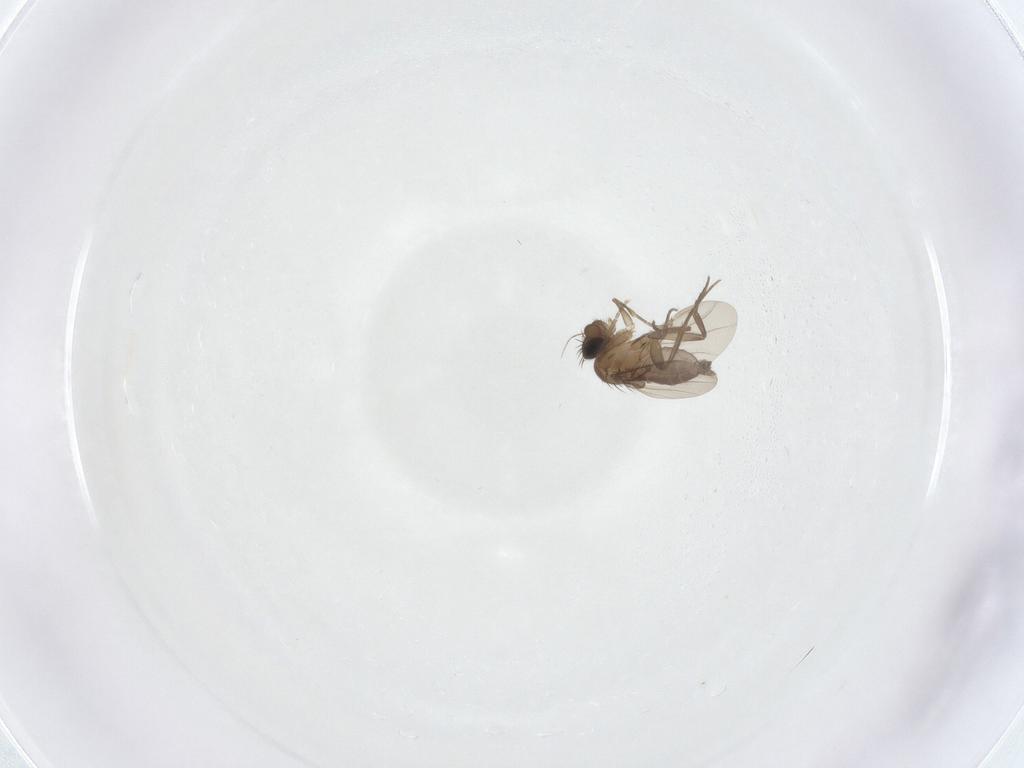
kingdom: Animalia
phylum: Arthropoda
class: Insecta
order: Diptera
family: Phoridae
